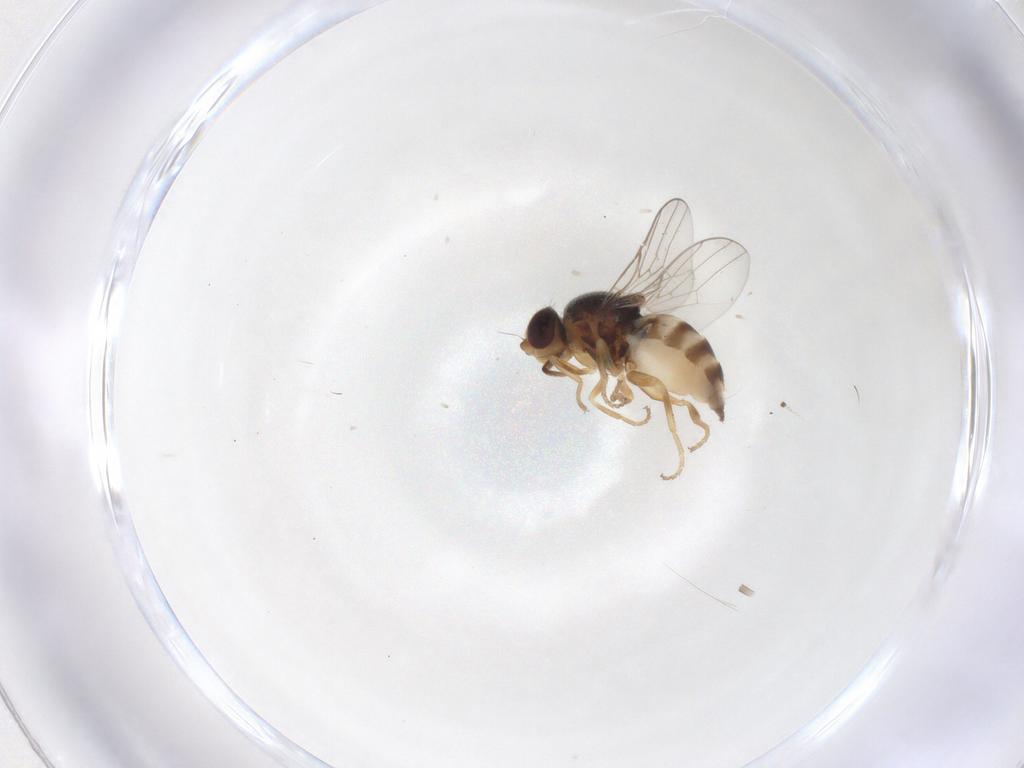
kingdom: Animalia
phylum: Arthropoda
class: Insecta
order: Diptera
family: Chloropidae
